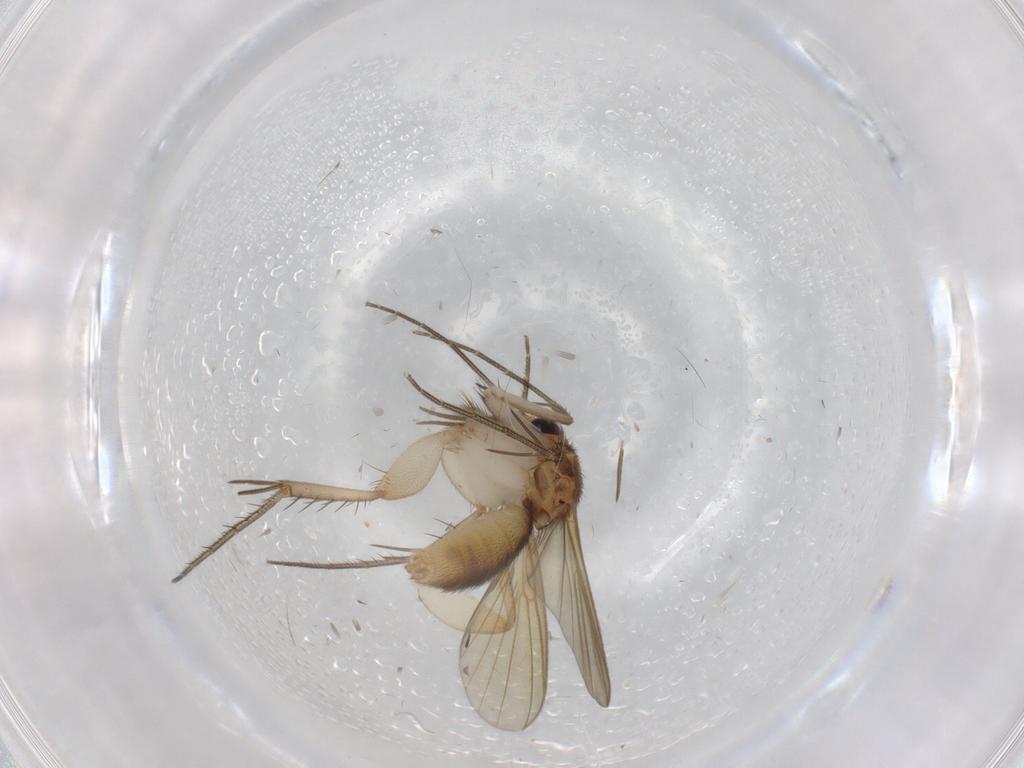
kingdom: Animalia
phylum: Arthropoda
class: Insecta
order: Diptera
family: Mycetophilidae
